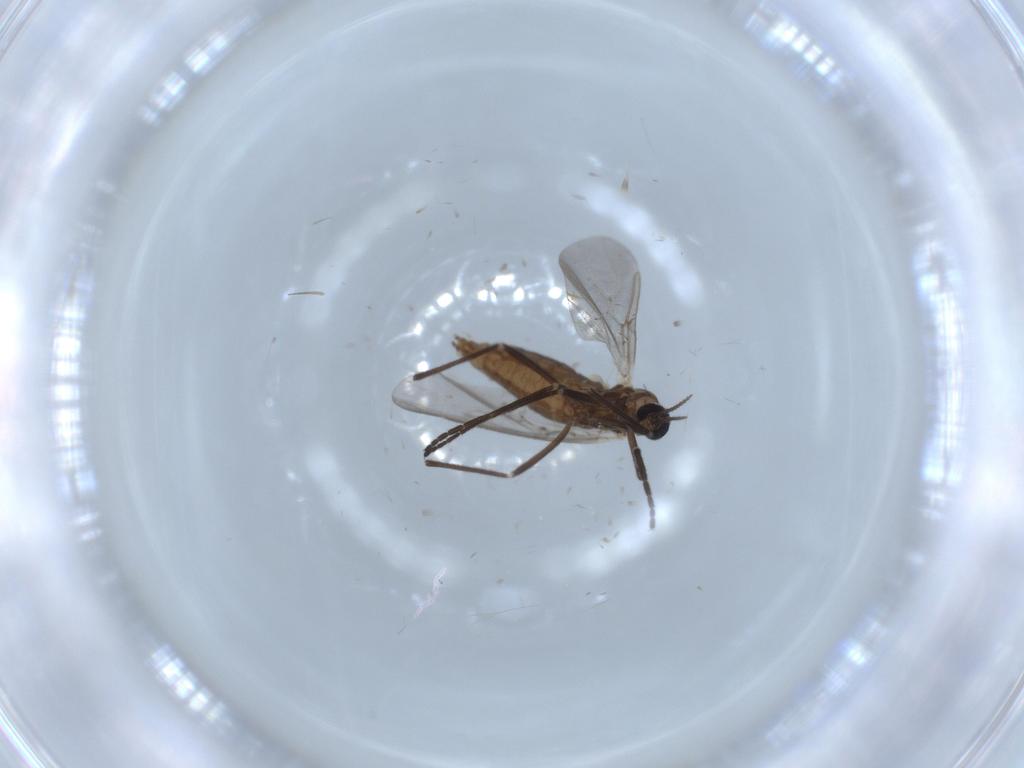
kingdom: Animalia
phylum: Arthropoda
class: Insecta
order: Diptera
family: Cecidomyiidae
